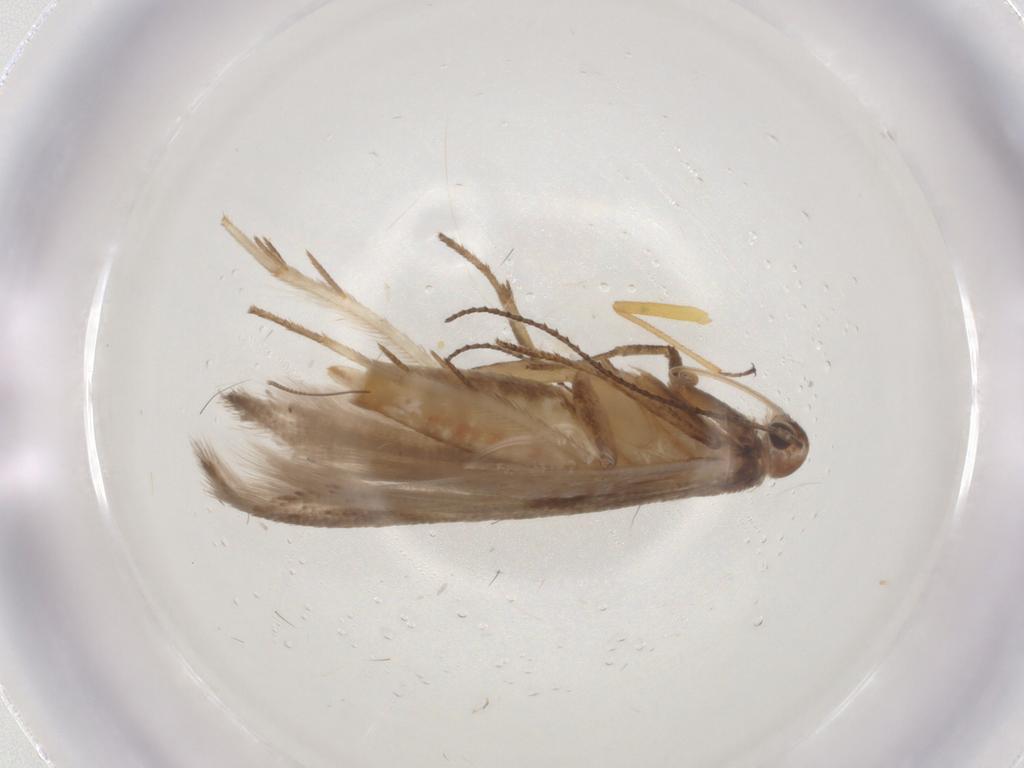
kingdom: Animalia
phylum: Arthropoda
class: Insecta
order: Lepidoptera
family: Gelechiidae
